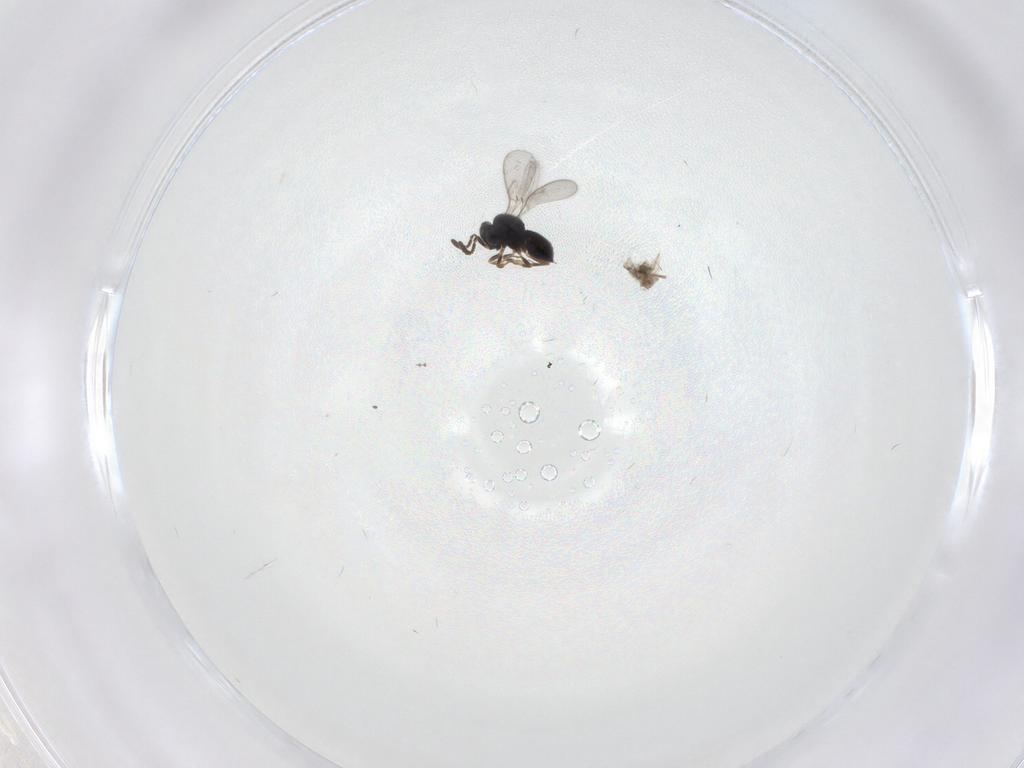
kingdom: Animalia
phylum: Arthropoda
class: Insecta
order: Hymenoptera
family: Scelionidae
